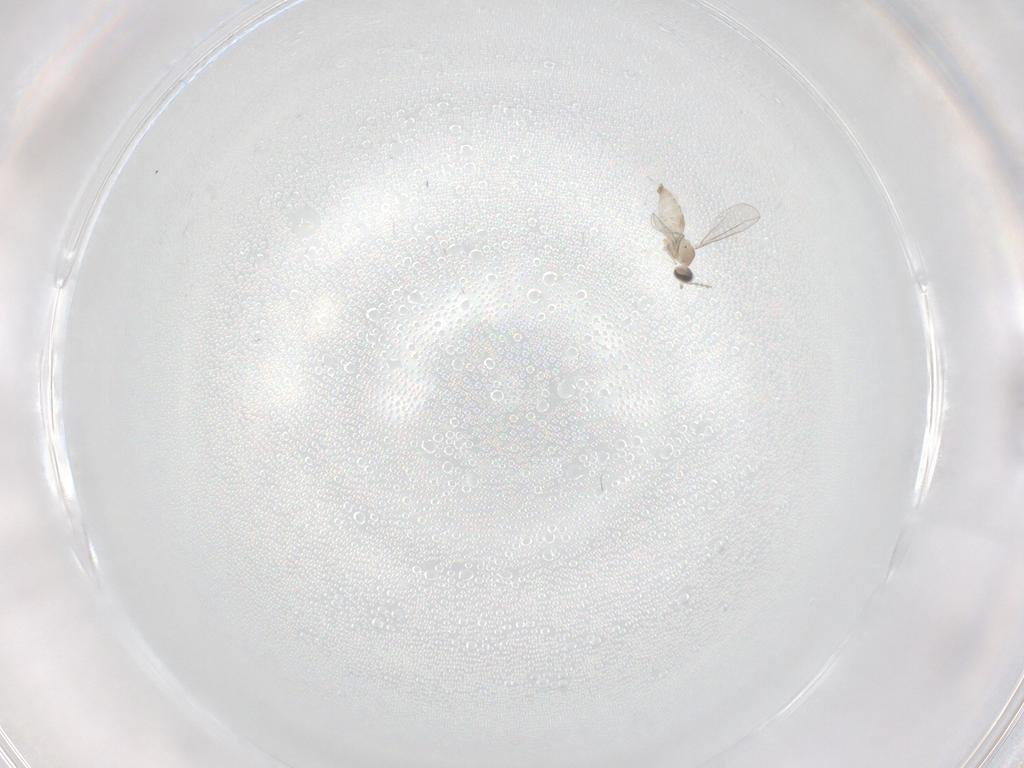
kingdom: Animalia
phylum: Arthropoda
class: Insecta
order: Diptera
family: Cecidomyiidae
